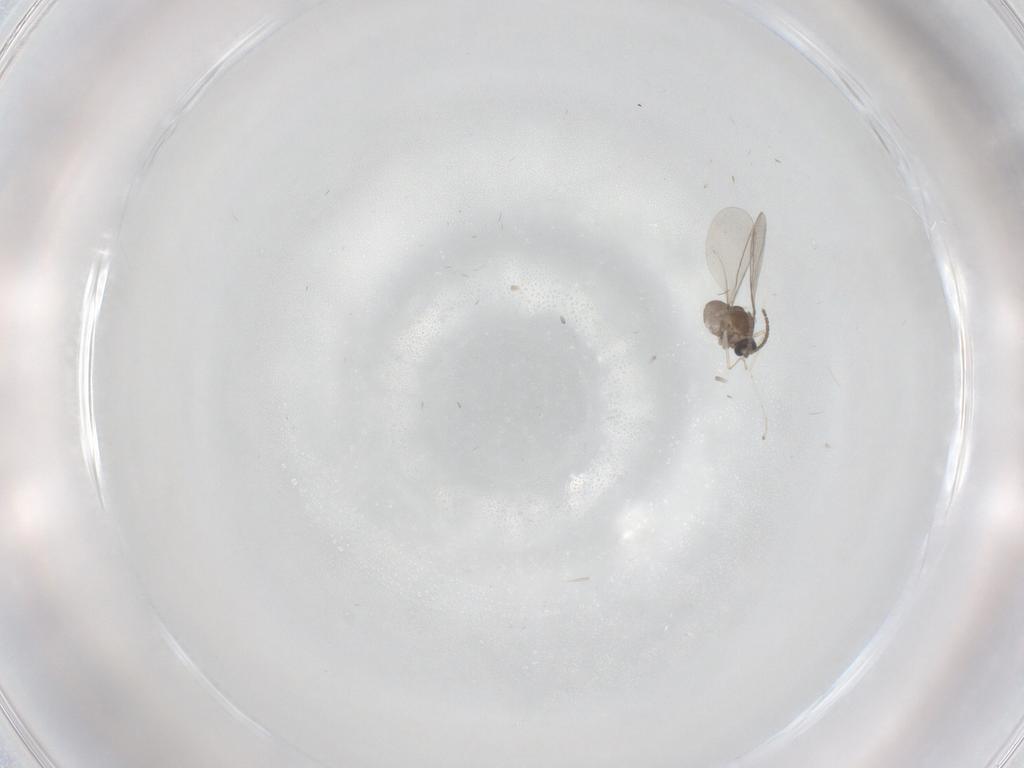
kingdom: Animalia
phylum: Arthropoda
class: Insecta
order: Diptera
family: Cecidomyiidae
